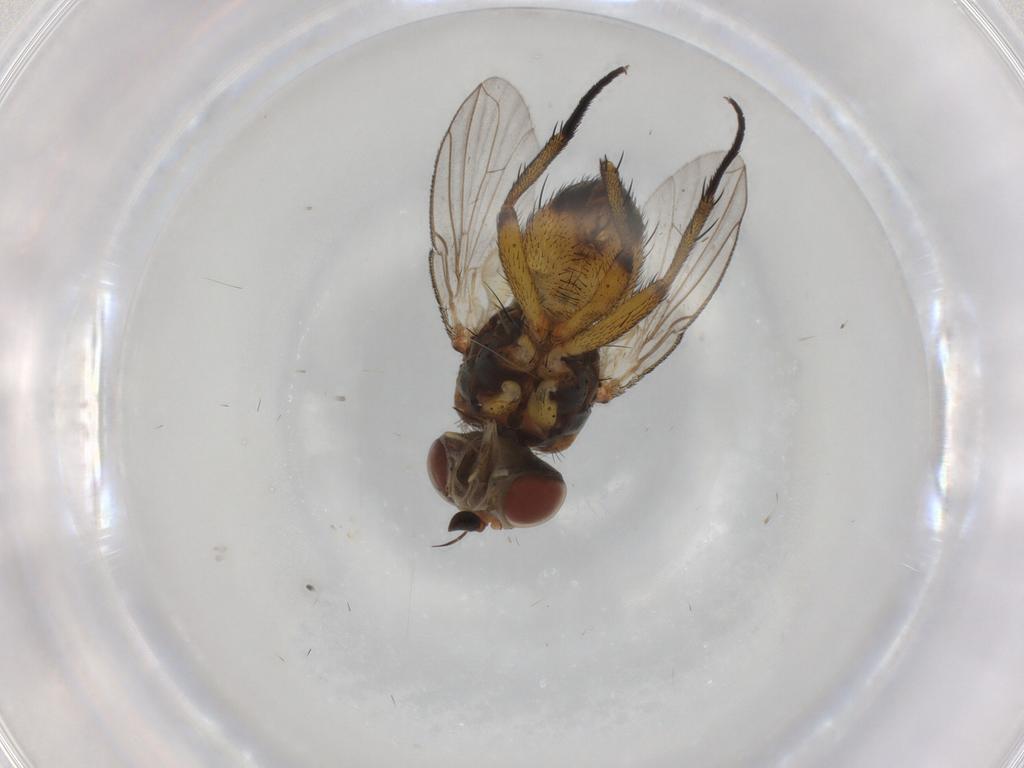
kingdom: Animalia
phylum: Arthropoda
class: Insecta
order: Diptera
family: Tachinidae
